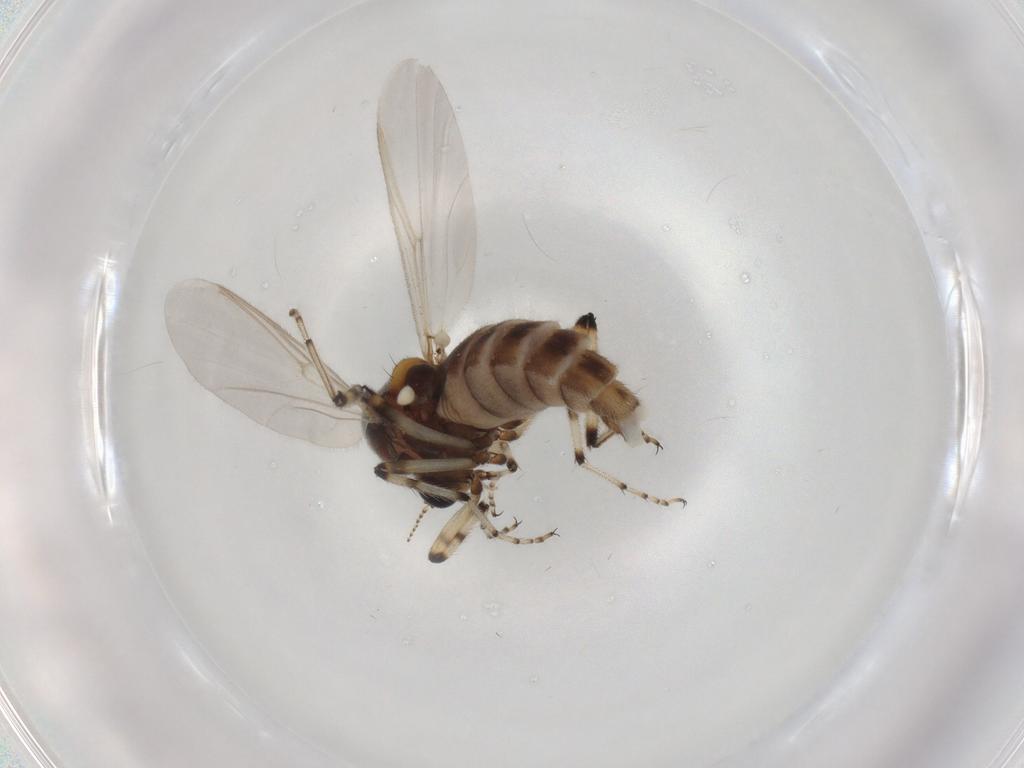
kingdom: Animalia
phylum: Arthropoda
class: Insecta
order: Diptera
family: Ceratopogonidae
